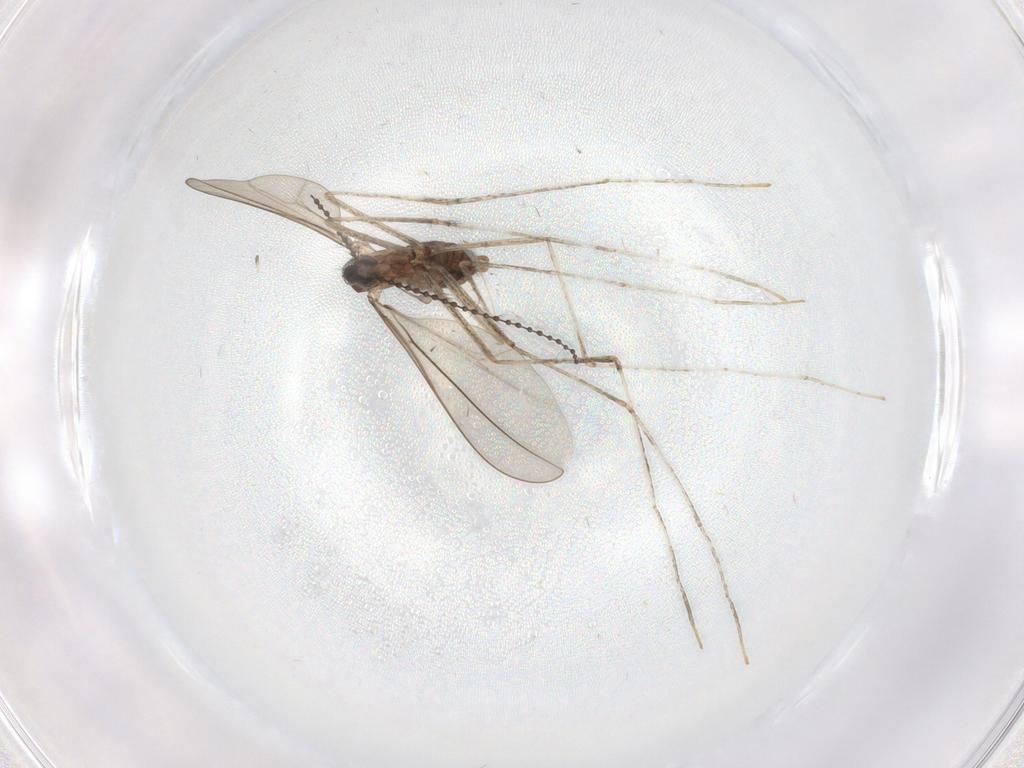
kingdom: Animalia
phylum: Arthropoda
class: Insecta
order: Diptera
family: Cecidomyiidae
